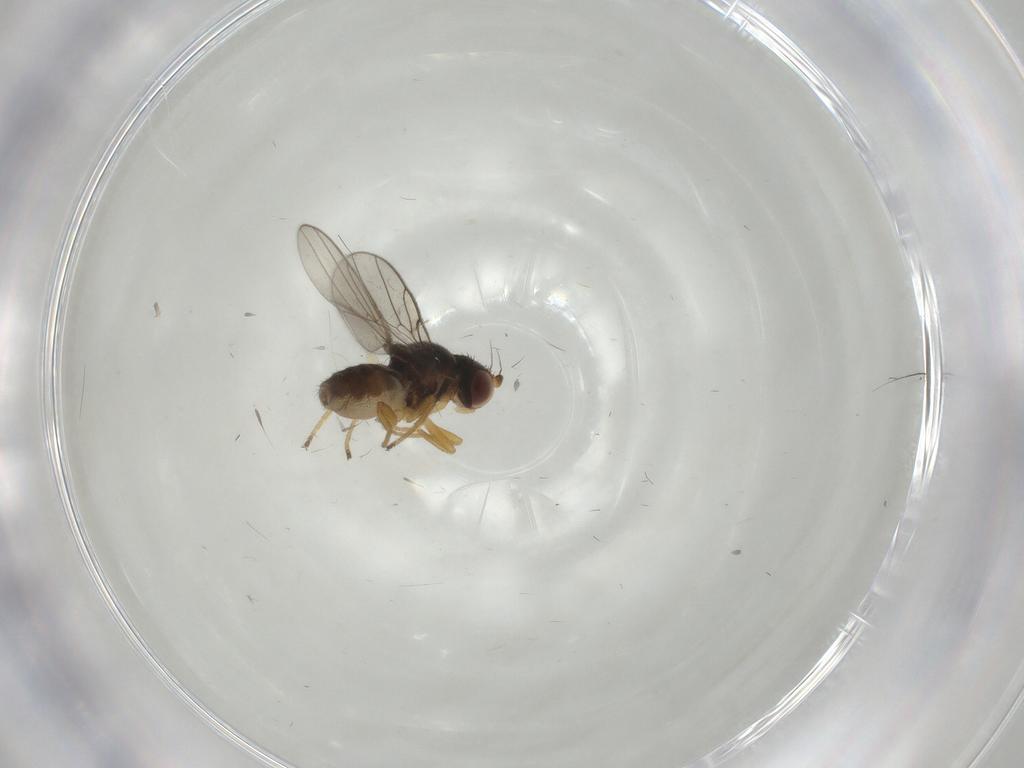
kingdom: Animalia
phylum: Arthropoda
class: Insecta
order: Diptera
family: Chloropidae
